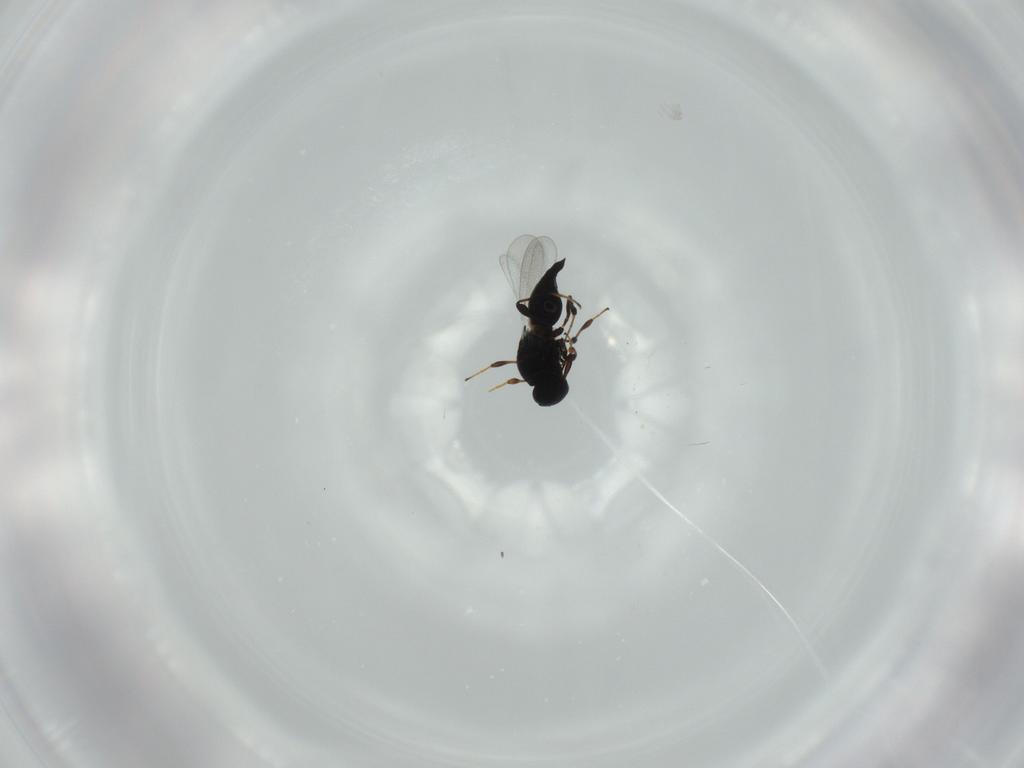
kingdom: Animalia
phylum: Arthropoda
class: Insecta
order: Hymenoptera
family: Platygastridae
